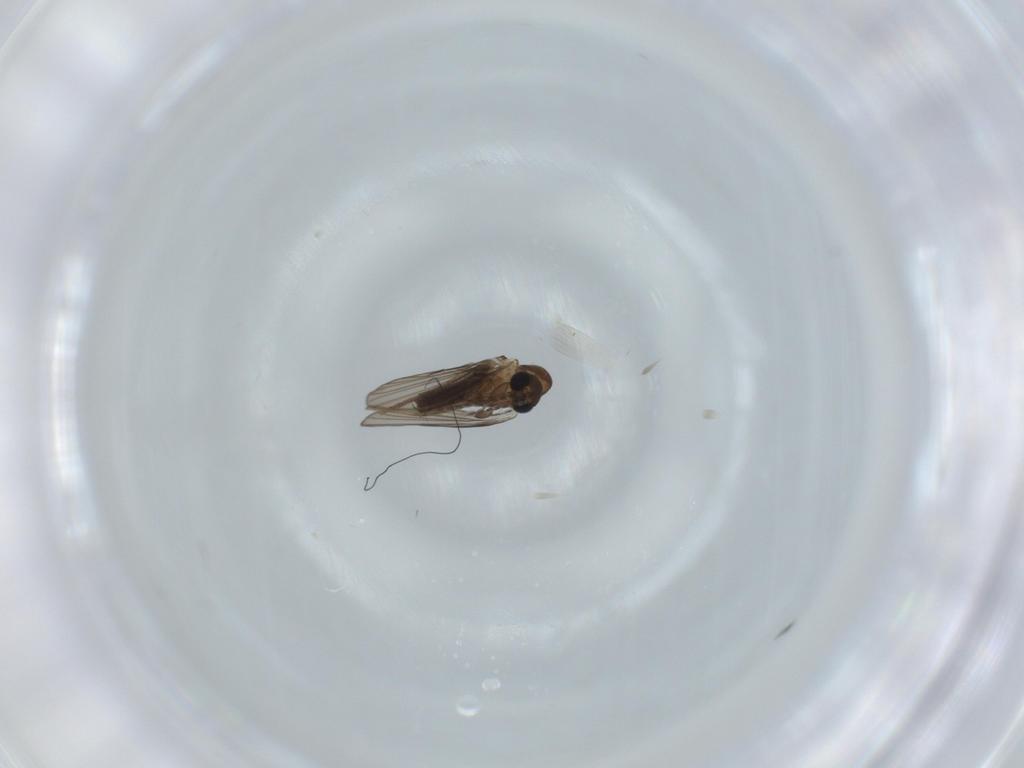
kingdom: Animalia
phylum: Arthropoda
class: Insecta
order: Diptera
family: Psychodidae
